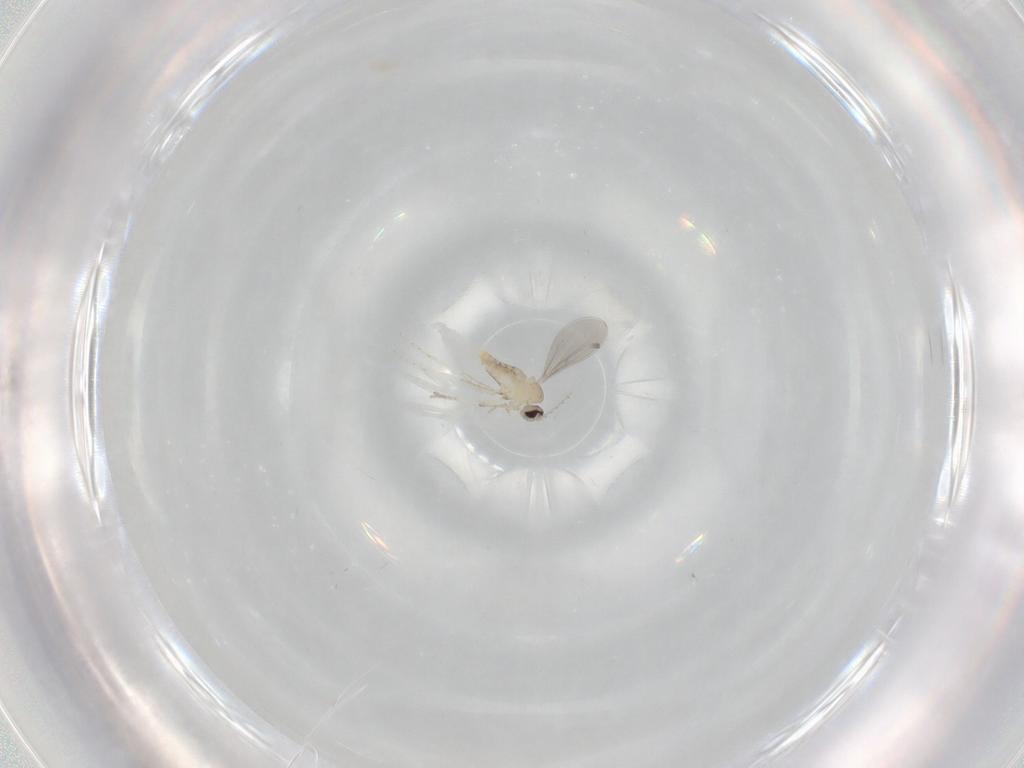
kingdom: Animalia
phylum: Arthropoda
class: Insecta
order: Diptera
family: Cecidomyiidae
